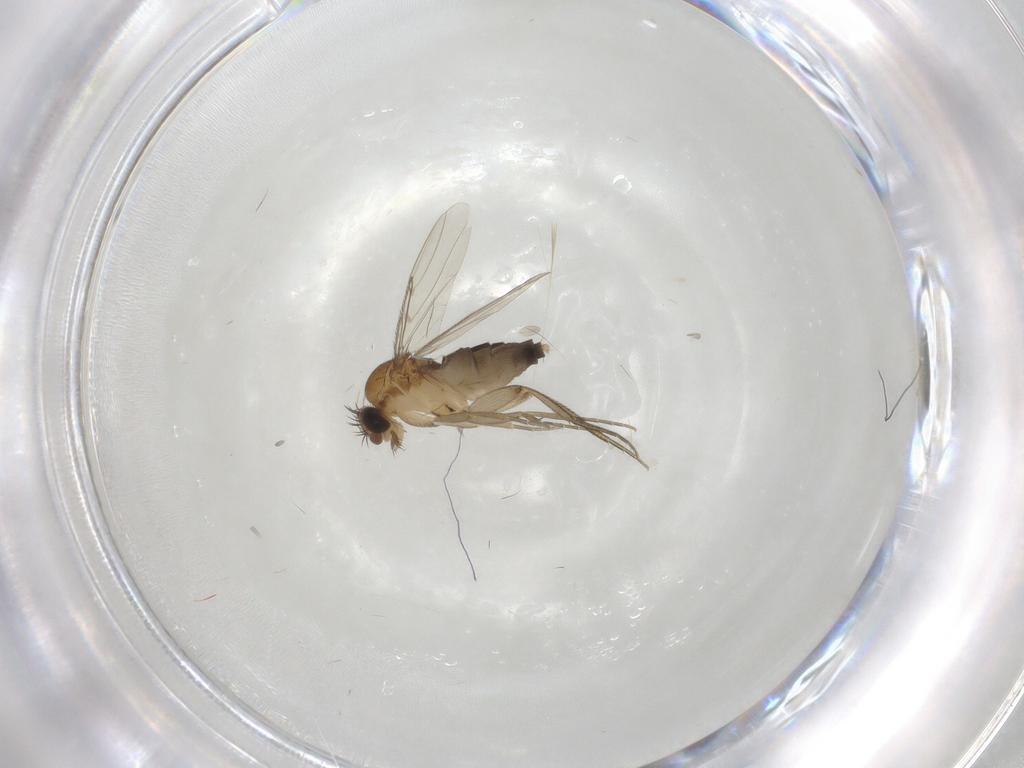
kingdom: Animalia
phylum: Arthropoda
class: Insecta
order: Diptera
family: Phoridae
